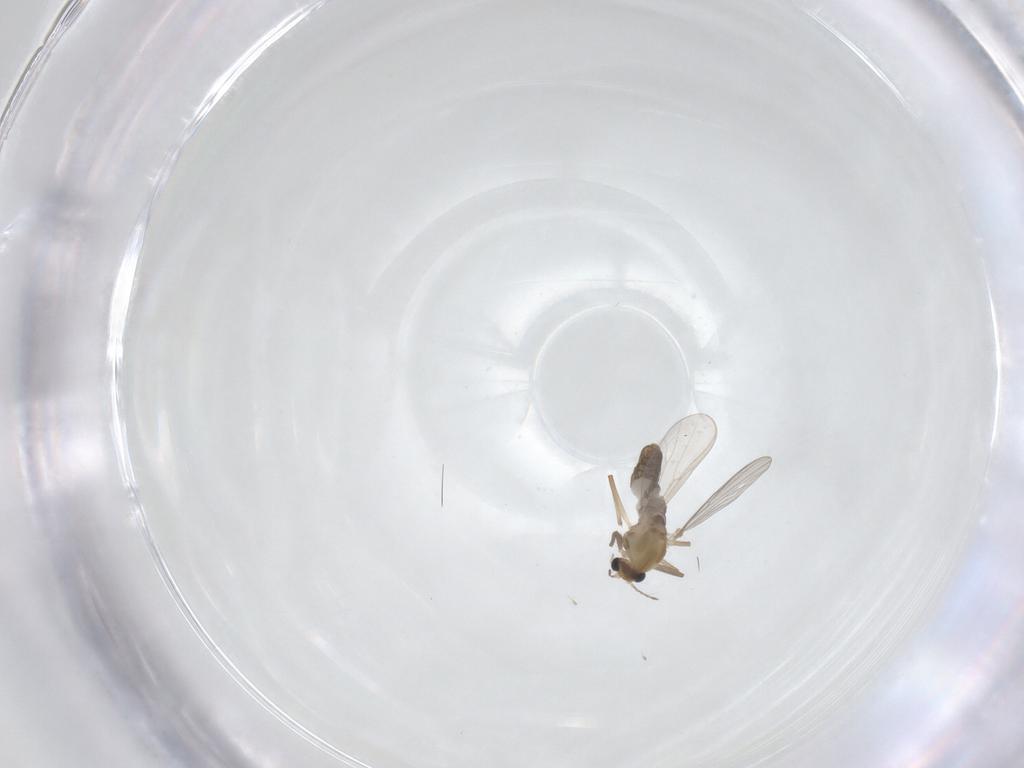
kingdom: Animalia
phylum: Arthropoda
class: Insecta
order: Diptera
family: Chironomidae
